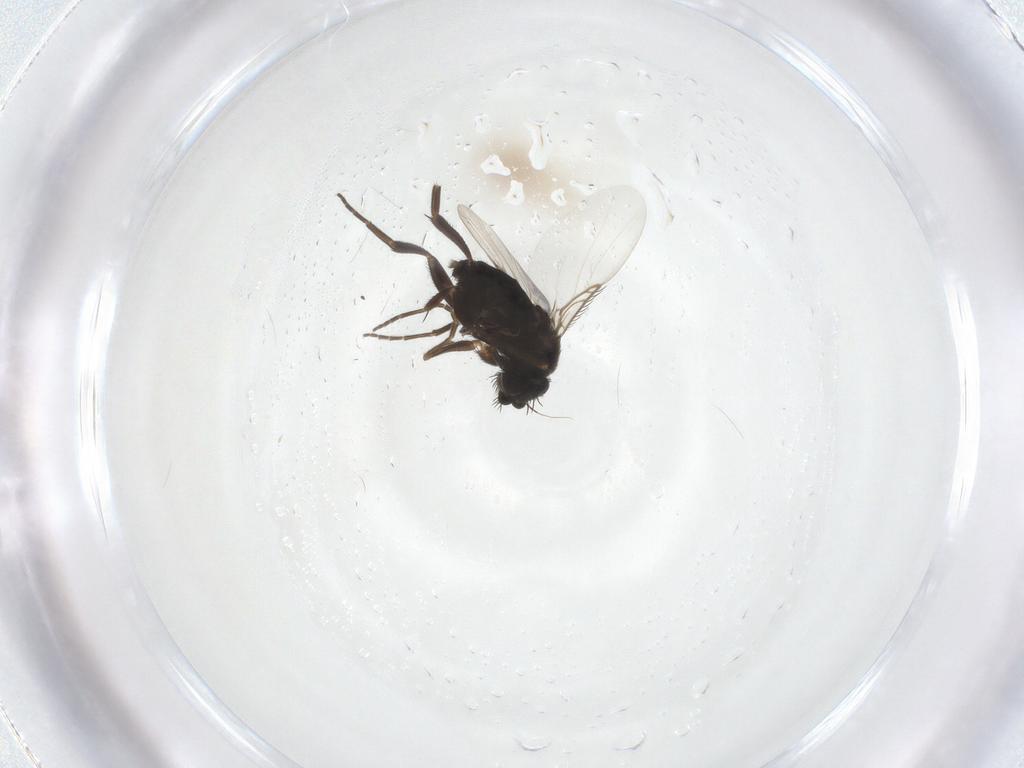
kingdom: Animalia
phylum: Arthropoda
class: Insecta
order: Diptera
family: Phoridae
